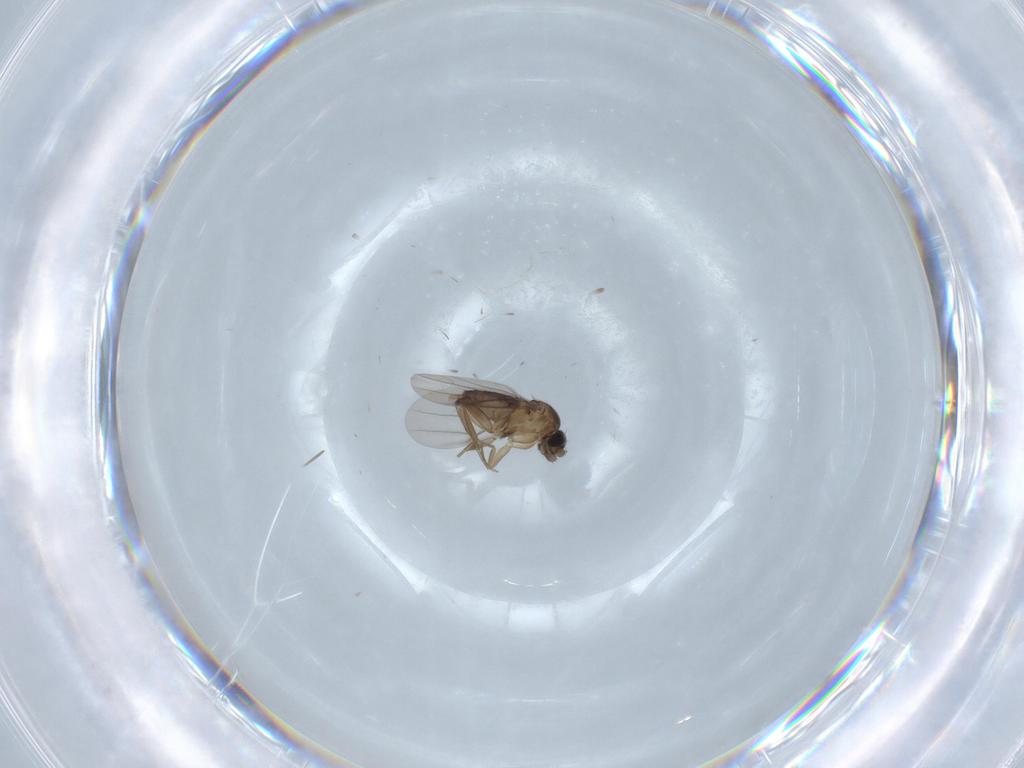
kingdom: Animalia
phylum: Arthropoda
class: Insecta
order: Diptera
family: Phoridae
